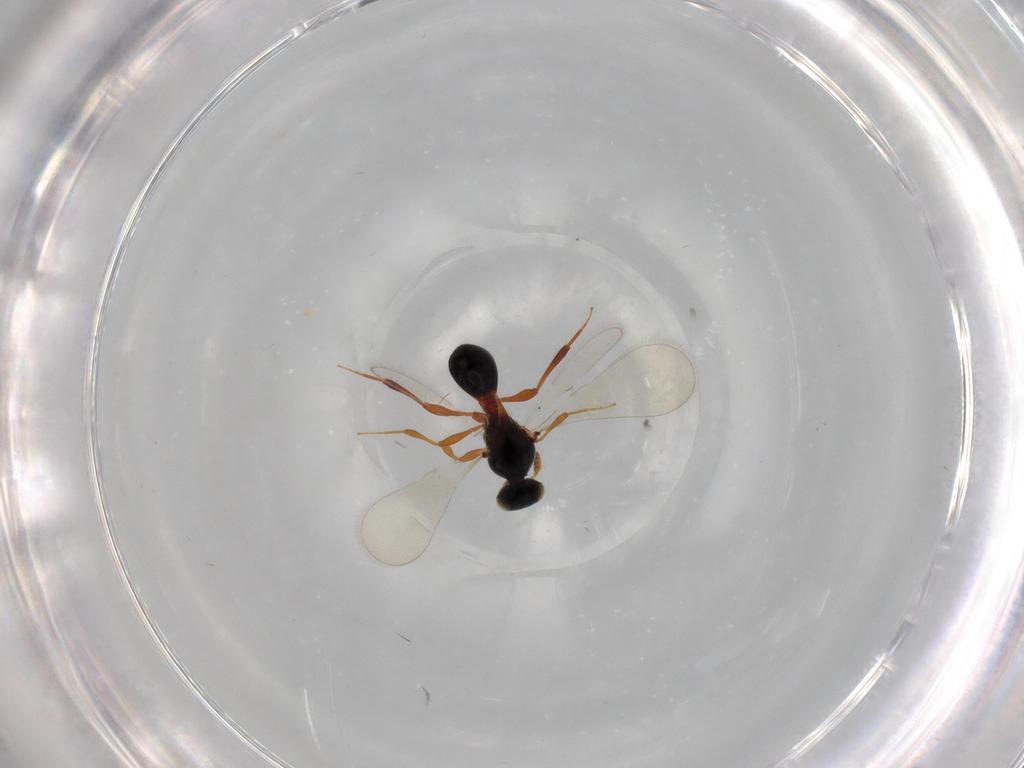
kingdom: Animalia
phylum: Arthropoda
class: Insecta
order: Hymenoptera
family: Platygastridae
